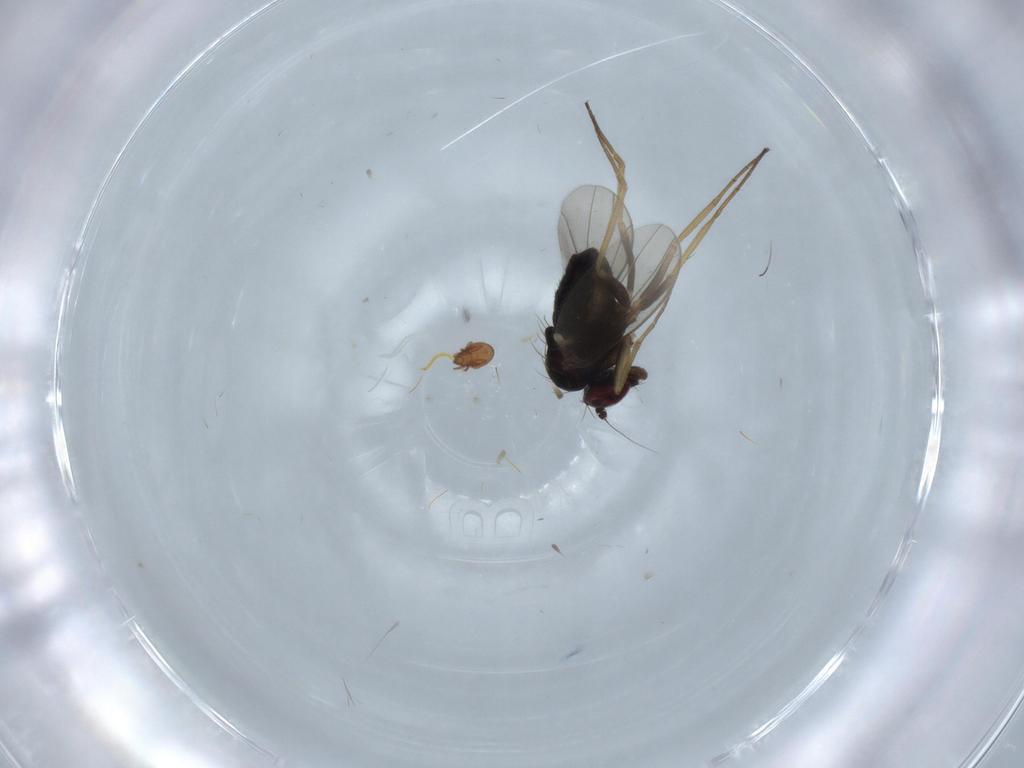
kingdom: Animalia
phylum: Arthropoda
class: Insecta
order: Diptera
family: Dolichopodidae
